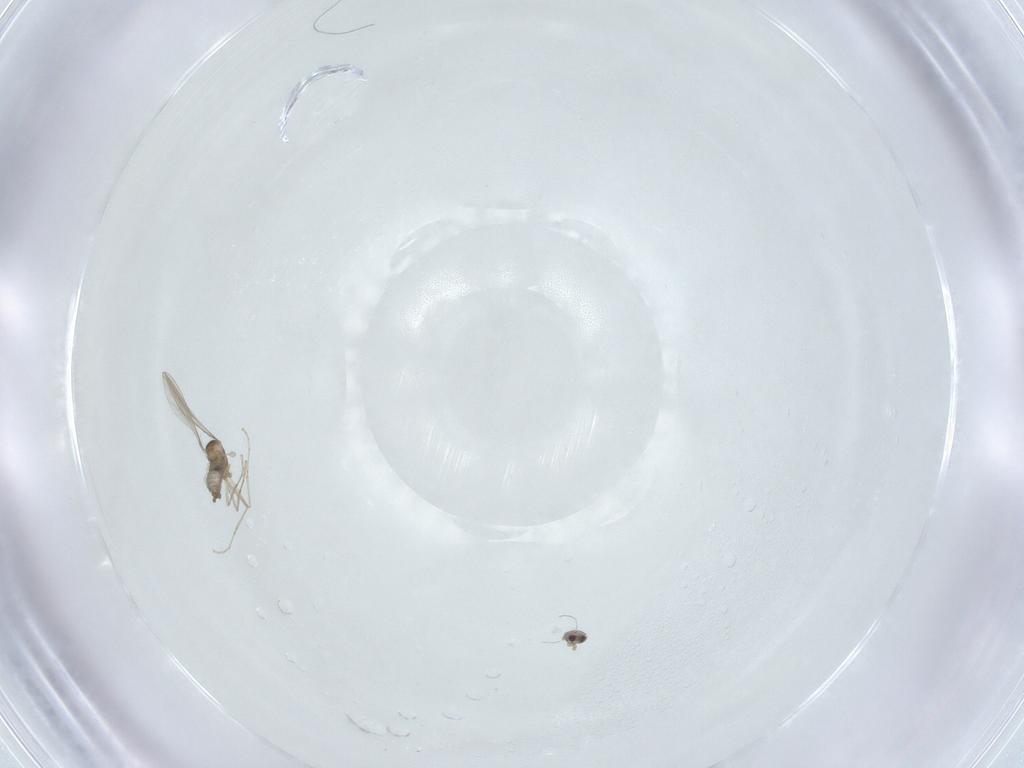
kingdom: Animalia
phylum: Arthropoda
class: Insecta
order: Diptera
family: Cecidomyiidae
